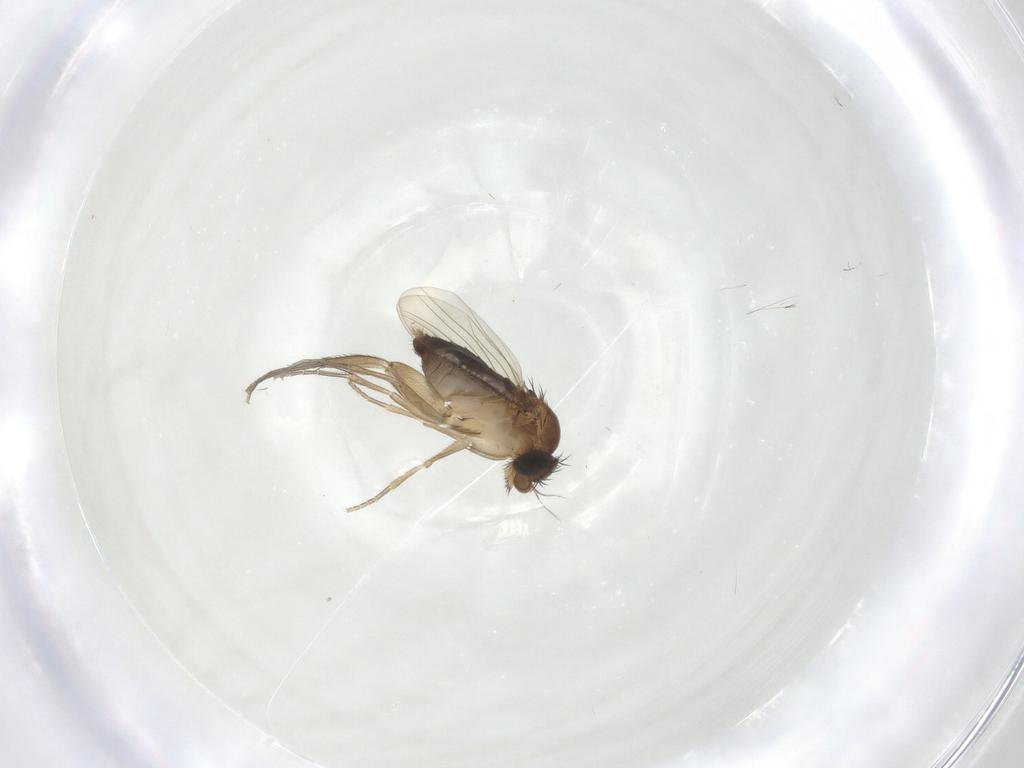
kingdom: Animalia
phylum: Arthropoda
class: Insecta
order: Diptera
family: Phoridae
